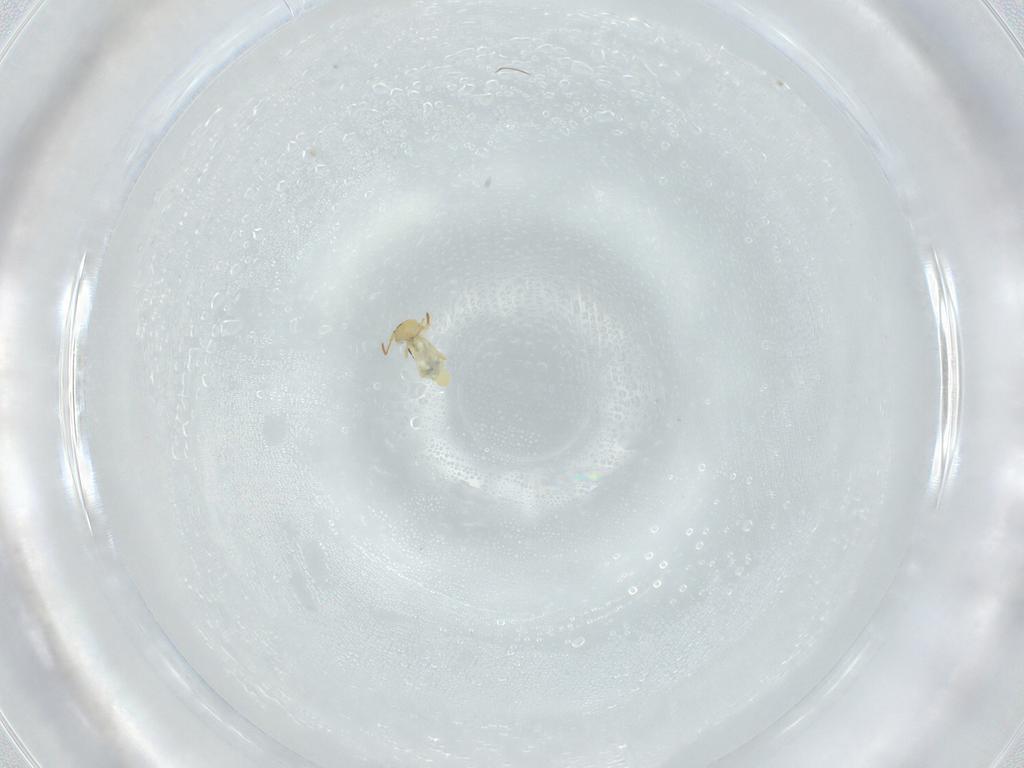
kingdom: Animalia
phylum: Arthropoda
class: Collembola
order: Symphypleona
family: Bourletiellidae
